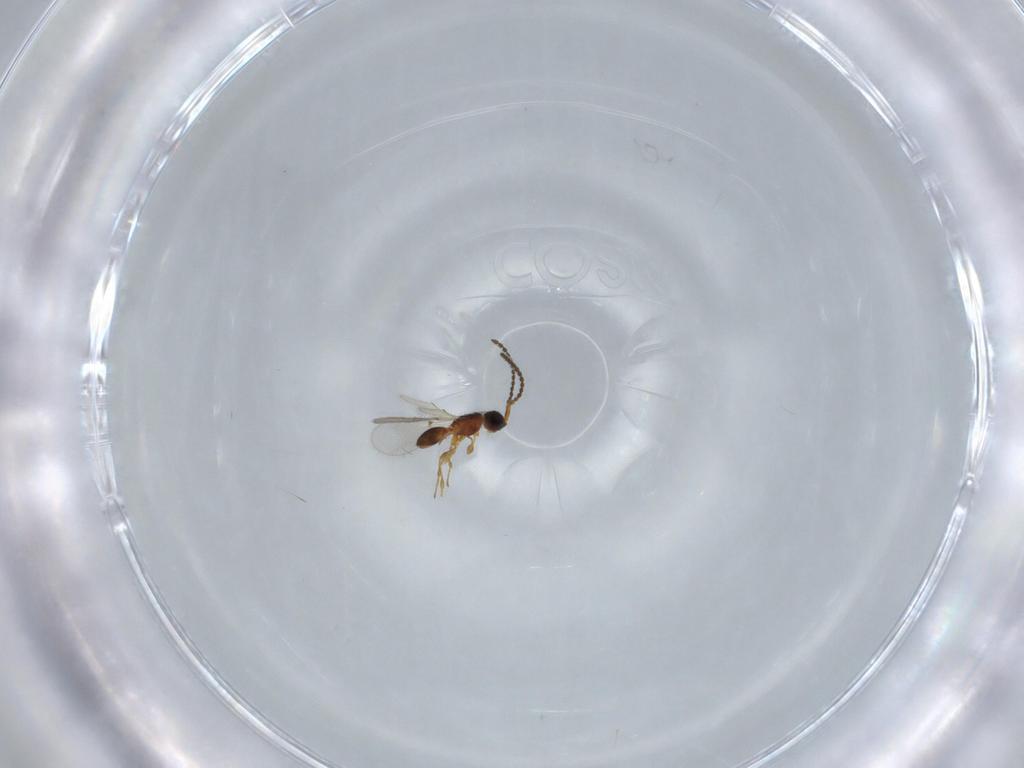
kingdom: Animalia
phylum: Arthropoda
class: Insecta
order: Hymenoptera
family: Diapriidae
